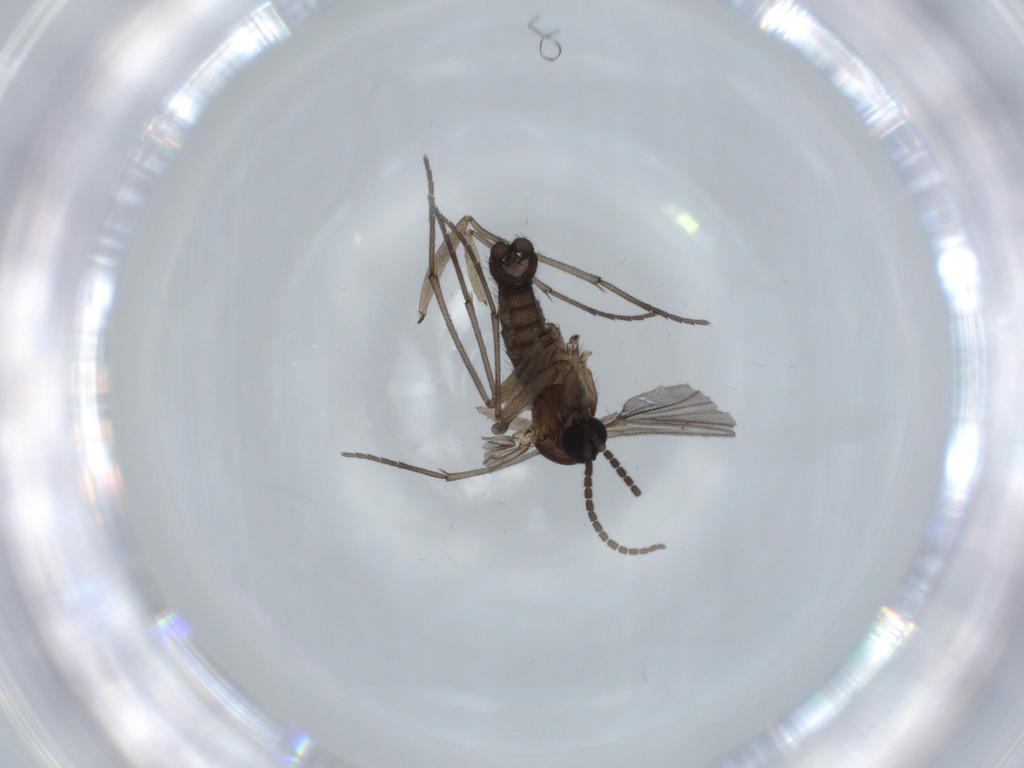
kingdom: Animalia
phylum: Arthropoda
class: Insecta
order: Diptera
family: Sciaridae
